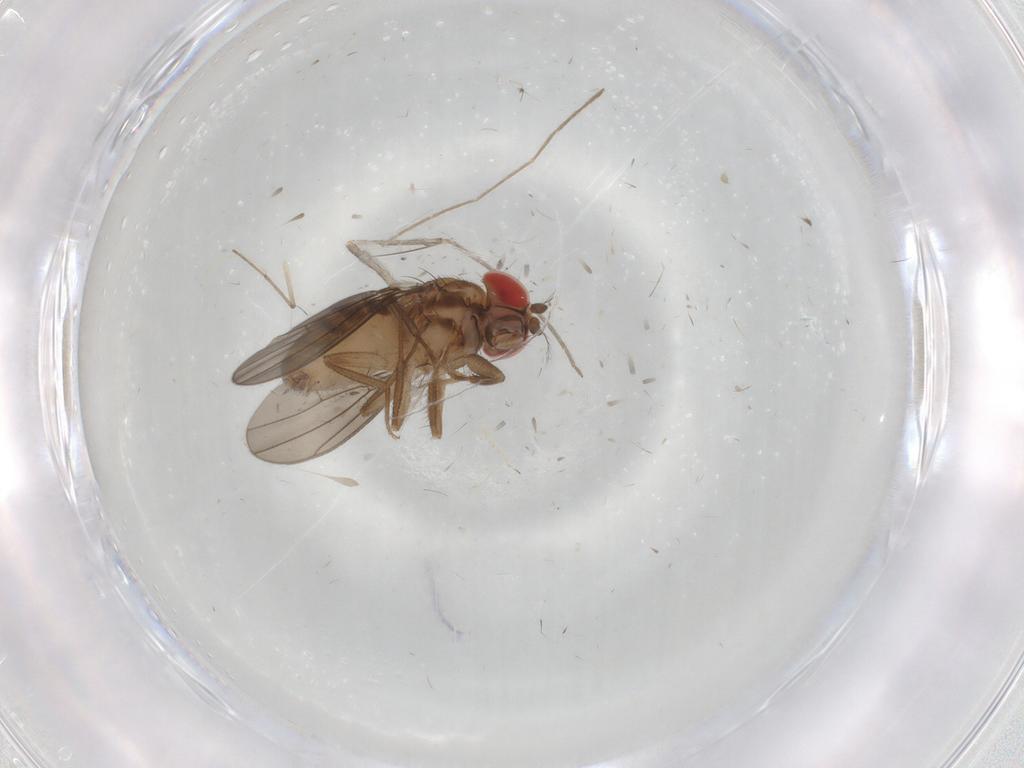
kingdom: Animalia
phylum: Arthropoda
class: Insecta
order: Diptera
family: Drosophilidae
